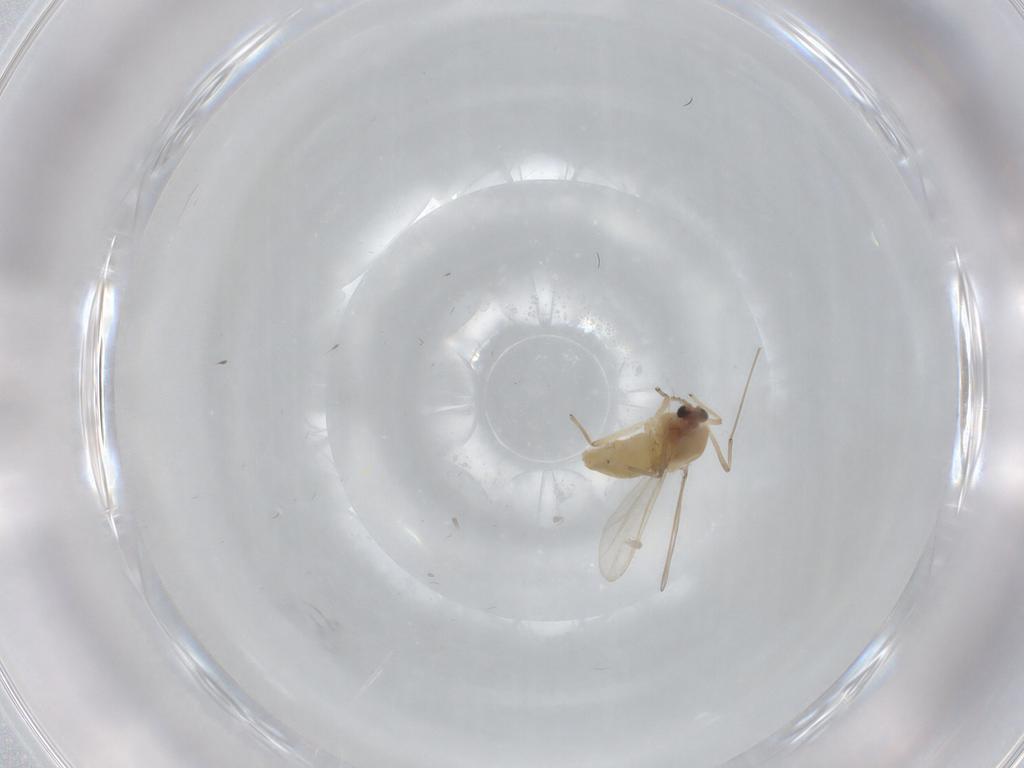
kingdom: Animalia
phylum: Arthropoda
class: Insecta
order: Diptera
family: Chironomidae
